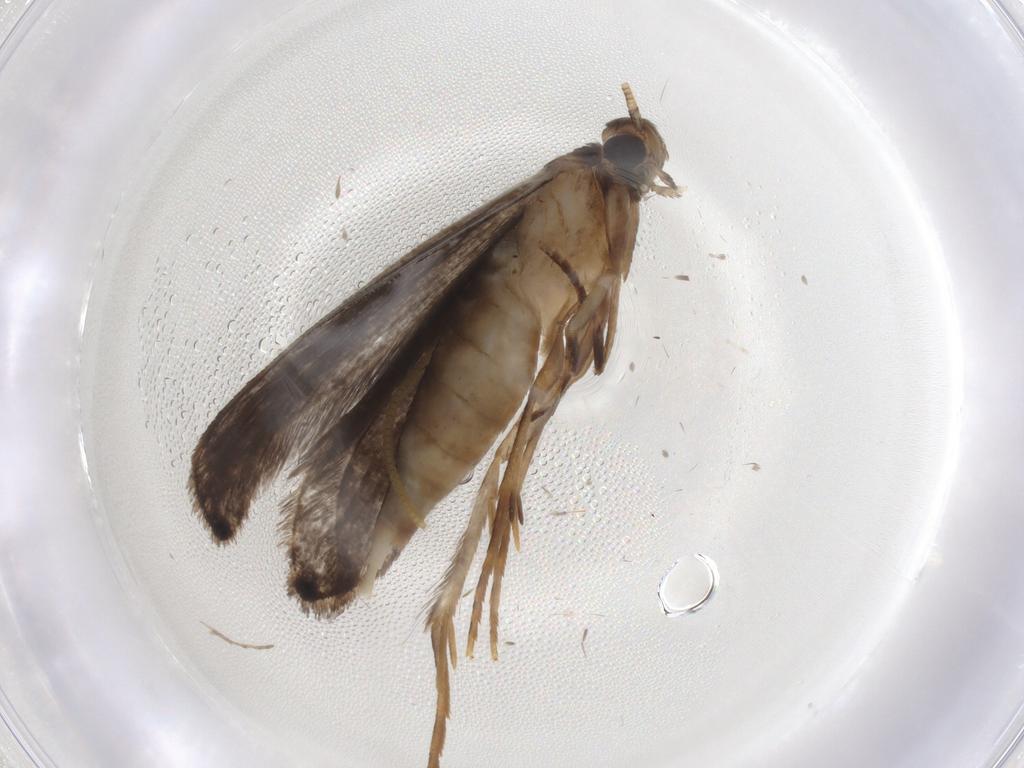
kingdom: Animalia
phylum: Arthropoda
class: Insecta
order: Lepidoptera
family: Tineidae
